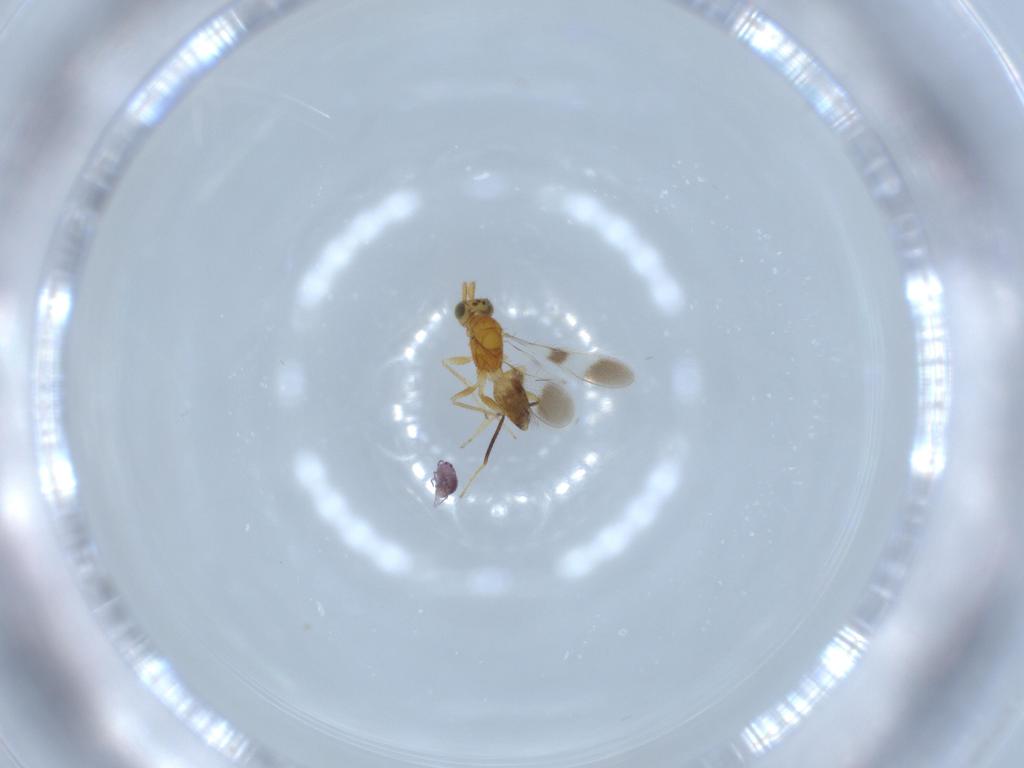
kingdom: Animalia
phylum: Arthropoda
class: Insecta
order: Hymenoptera
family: Mymaridae
